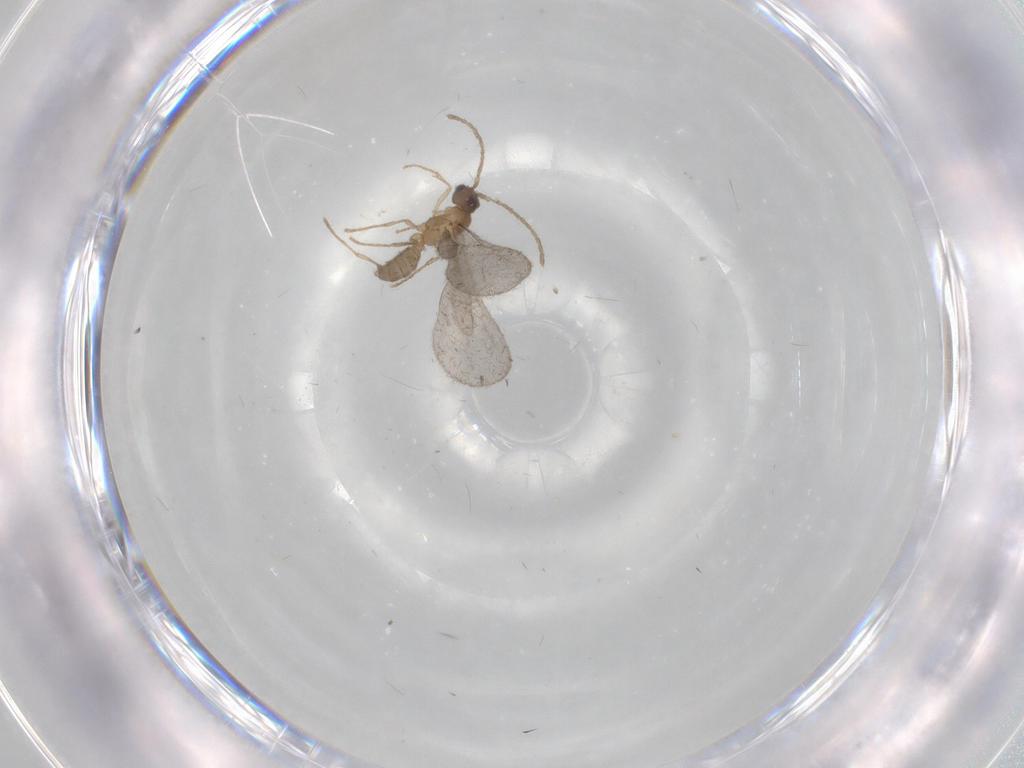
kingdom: Animalia
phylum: Arthropoda
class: Insecta
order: Hymenoptera
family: Formicidae
